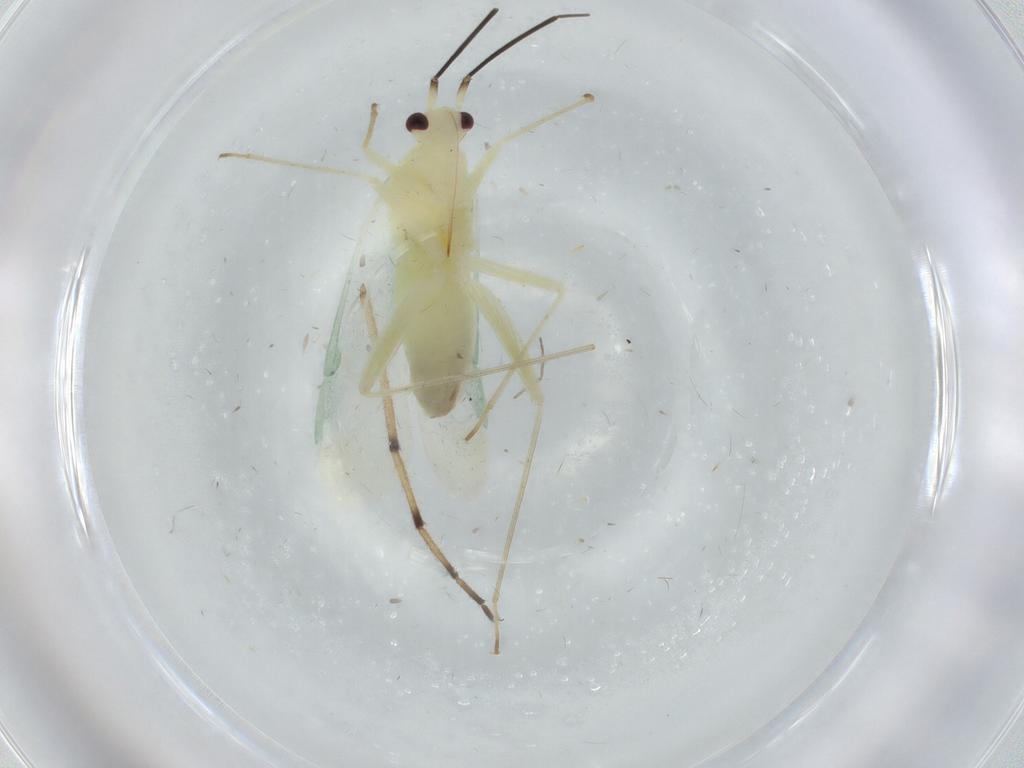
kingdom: Animalia
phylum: Arthropoda
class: Insecta
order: Hemiptera
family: Miridae
